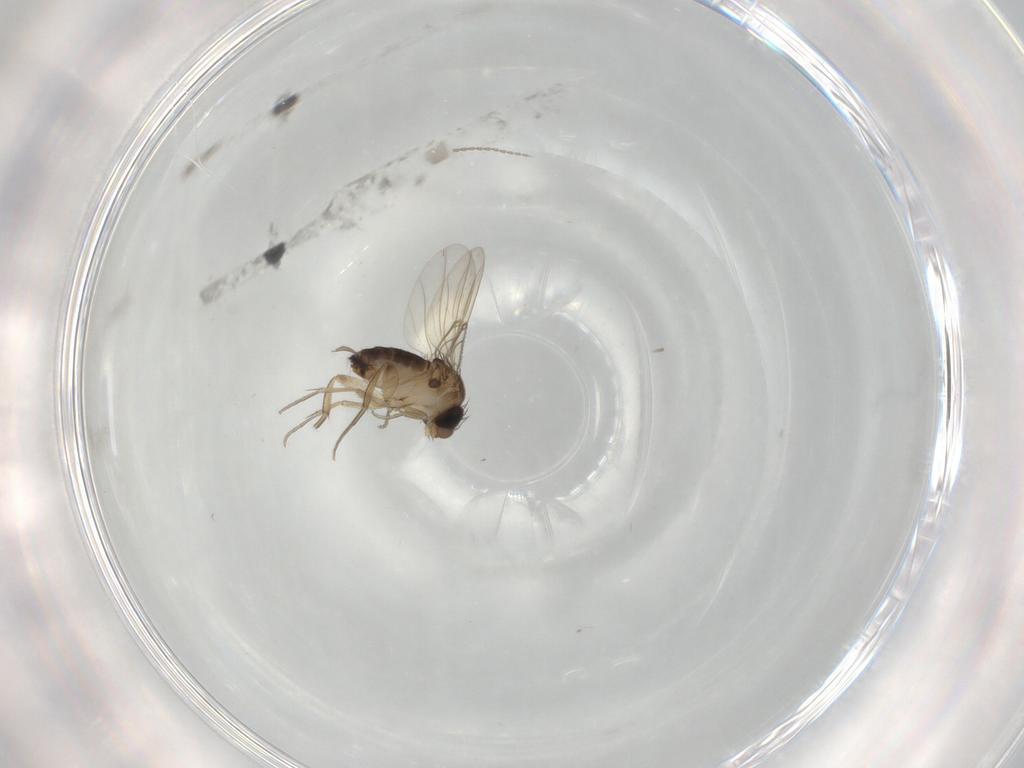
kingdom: Animalia
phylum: Arthropoda
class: Insecta
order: Diptera
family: Phoridae
